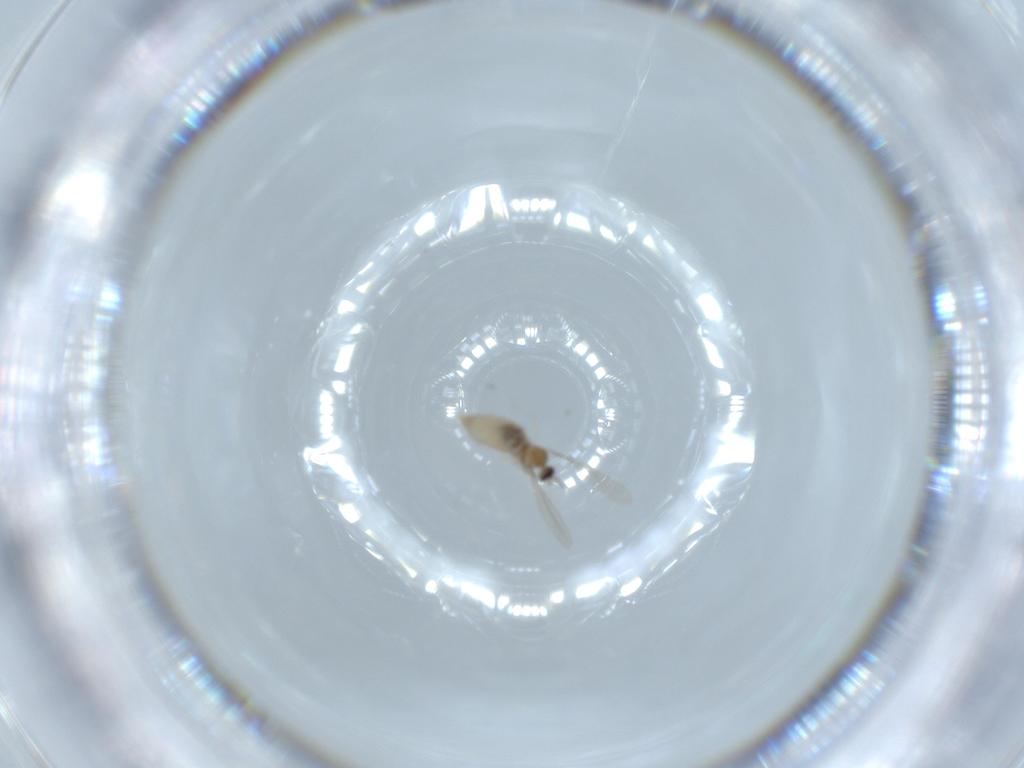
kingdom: Animalia
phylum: Arthropoda
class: Insecta
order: Diptera
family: Cecidomyiidae
